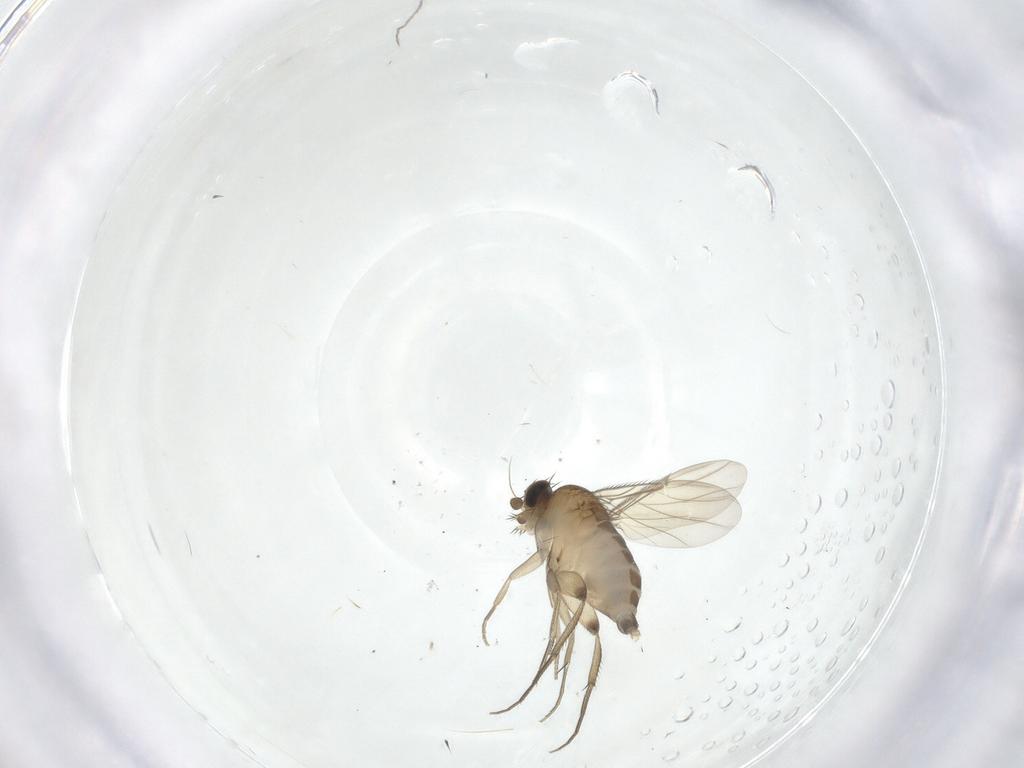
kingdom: Animalia
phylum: Arthropoda
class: Insecta
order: Diptera
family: Phoridae
